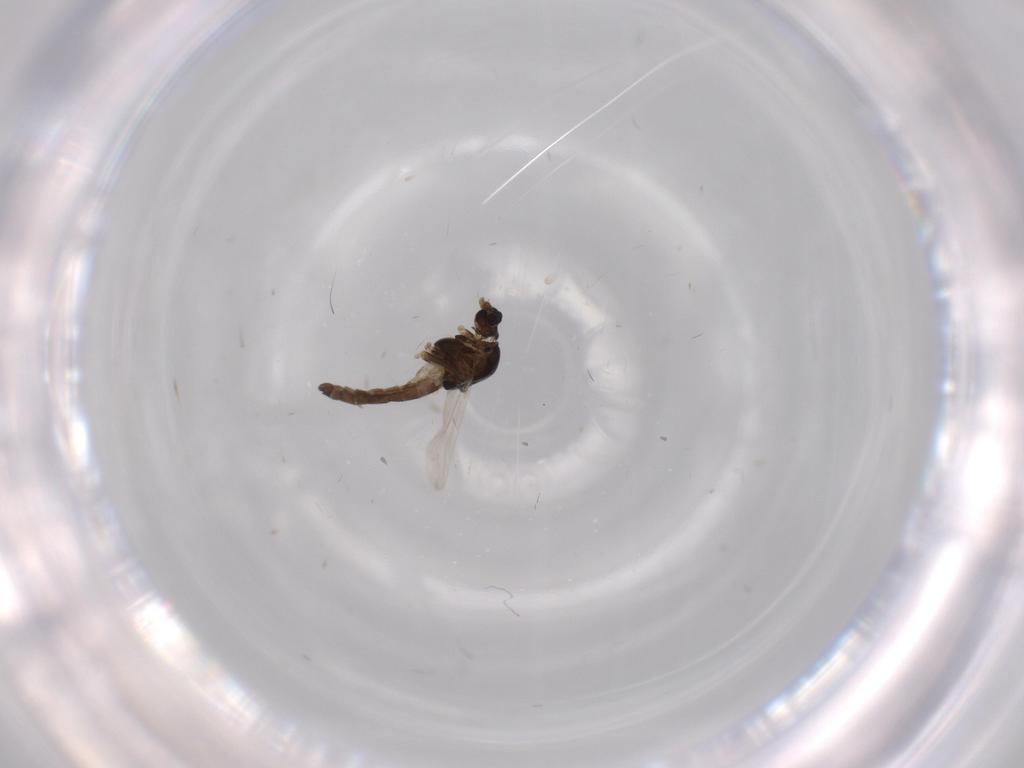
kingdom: Animalia
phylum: Arthropoda
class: Insecta
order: Diptera
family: Chironomidae
